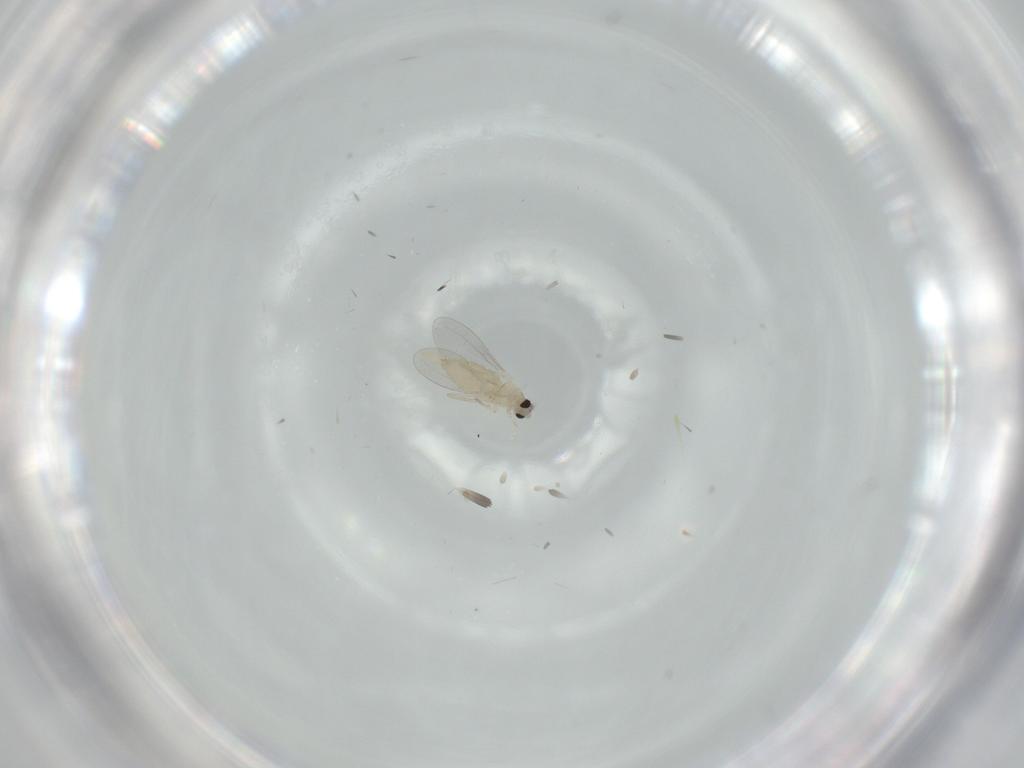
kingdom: Animalia
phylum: Arthropoda
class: Insecta
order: Diptera
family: Cecidomyiidae
